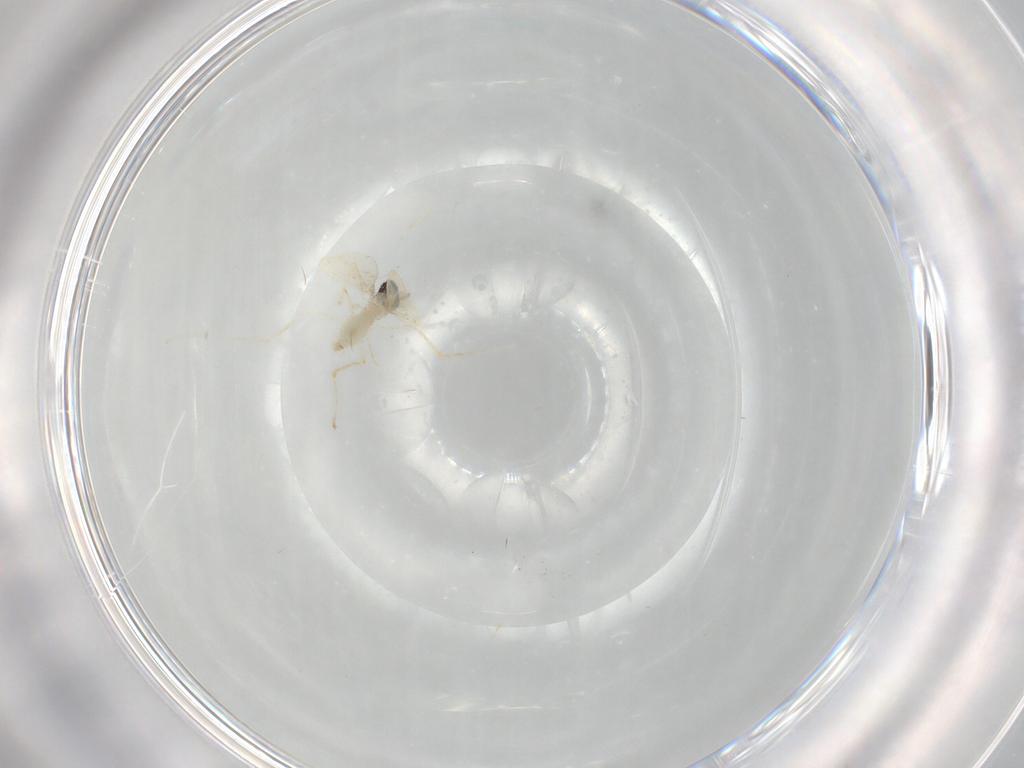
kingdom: Animalia
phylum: Arthropoda
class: Insecta
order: Diptera
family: Cecidomyiidae
